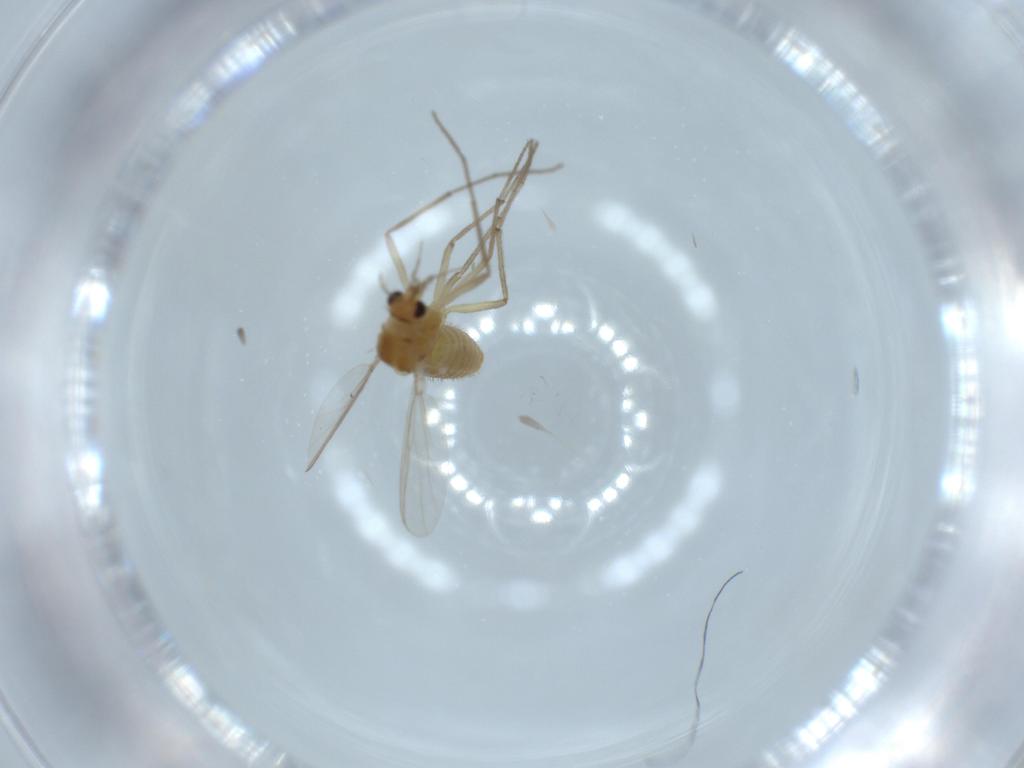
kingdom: Animalia
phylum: Arthropoda
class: Insecta
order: Diptera
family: Chironomidae
